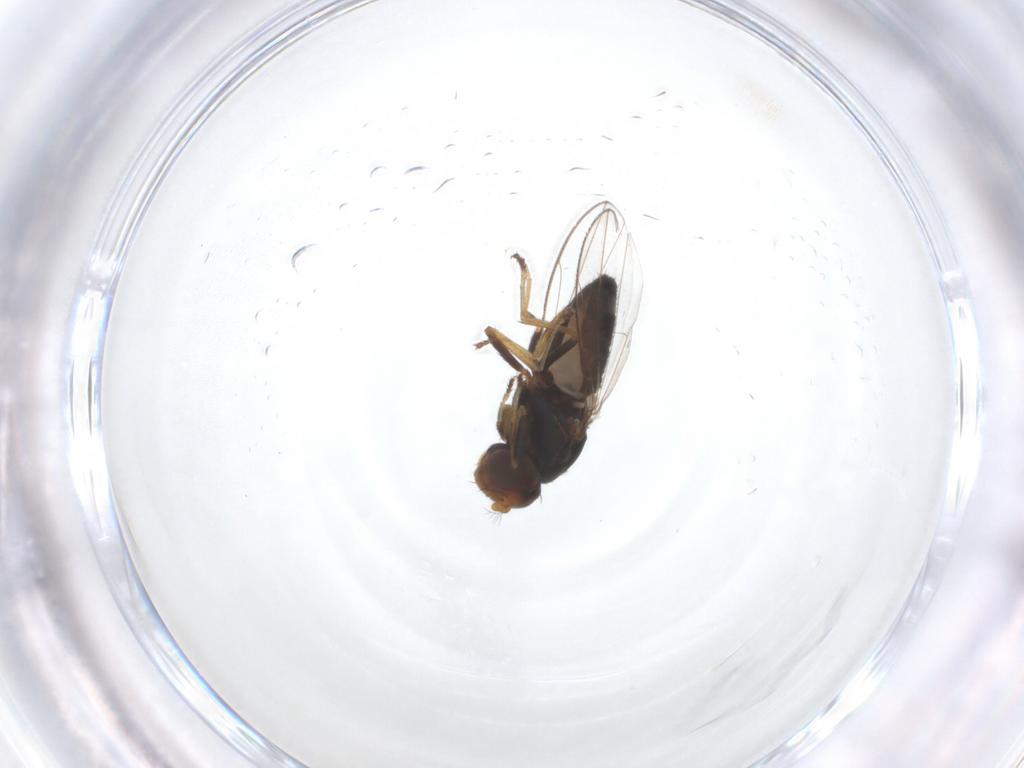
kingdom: Animalia
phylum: Arthropoda
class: Insecta
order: Diptera
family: Ephydridae
